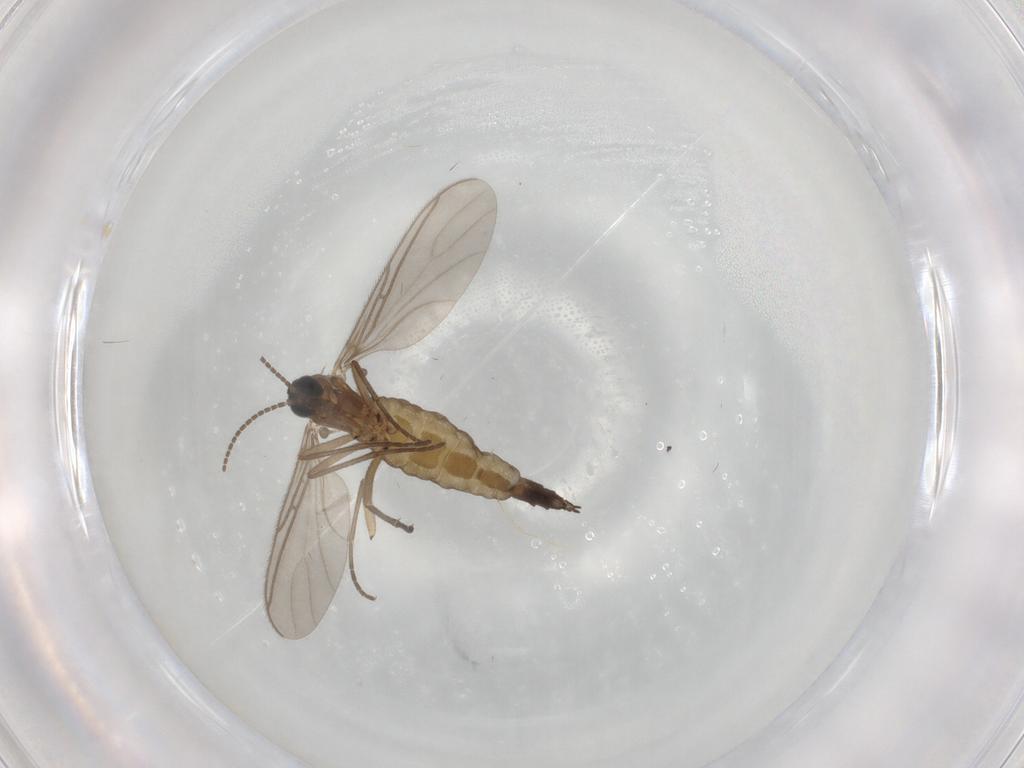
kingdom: Animalia
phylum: Arthropoda
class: Insecta
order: Diptera
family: Sciaridae
